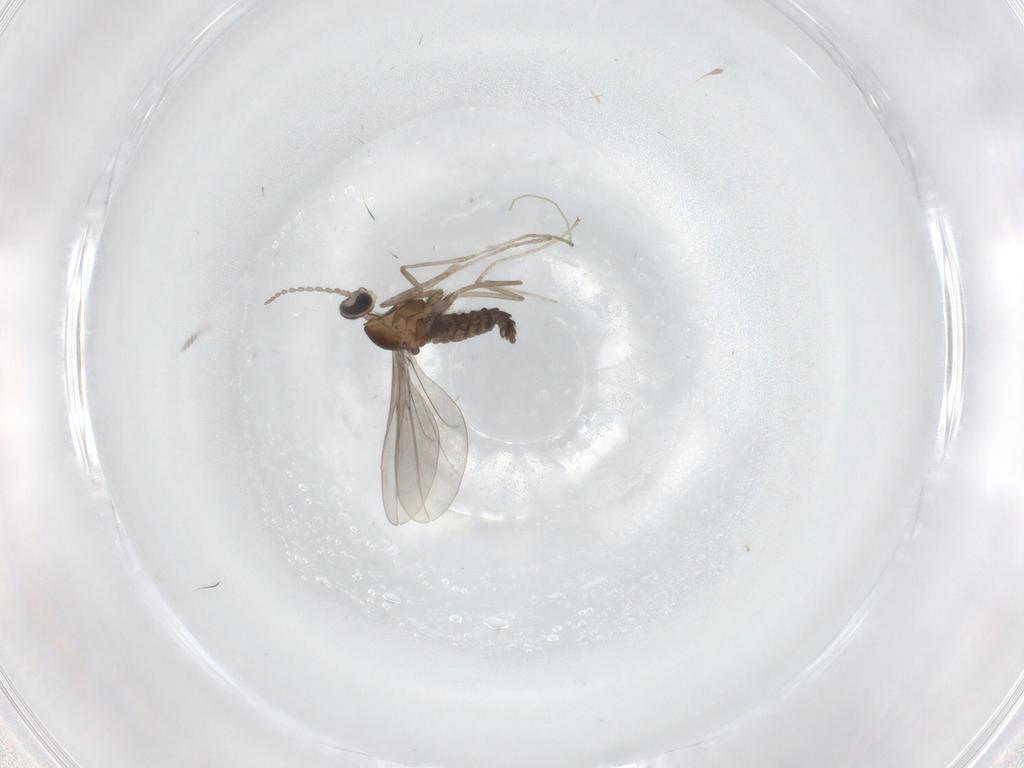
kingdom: Animalia
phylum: Arthropoda
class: Insecta
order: Diptera
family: Cecidomyiidae
